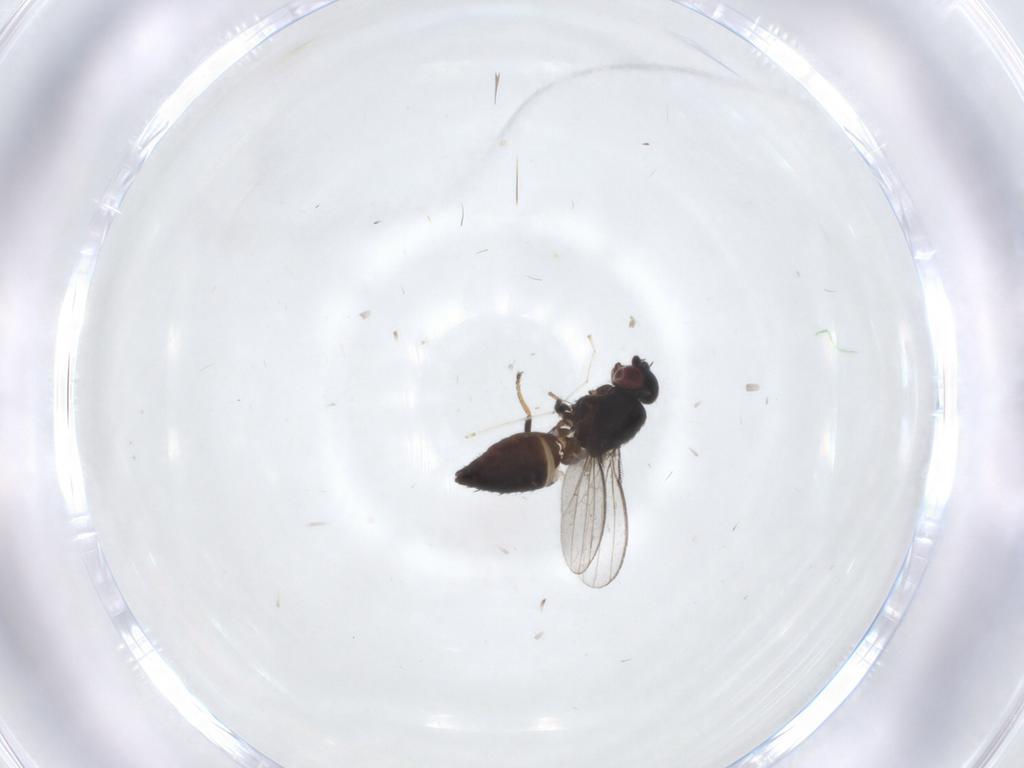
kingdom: Animalia
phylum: Arthropoda
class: Insecta
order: Diptera
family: Cecidomyiidae
